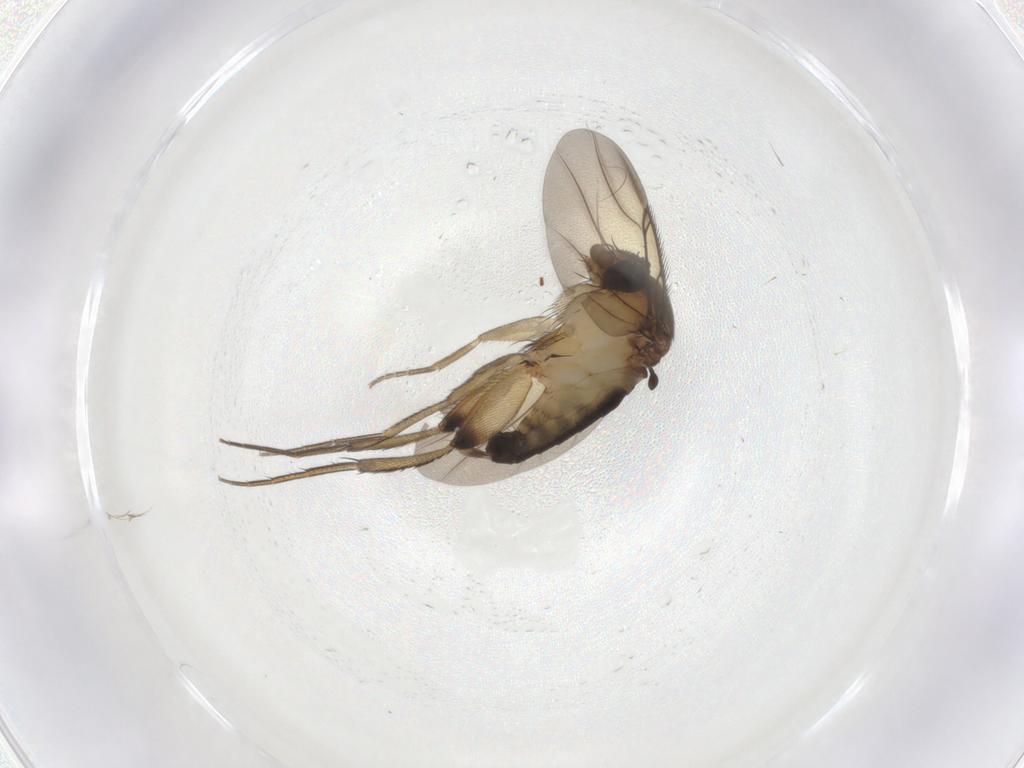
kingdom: Animalia
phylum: Arthropoda
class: Insecta
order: Diptera
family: Phoridae
